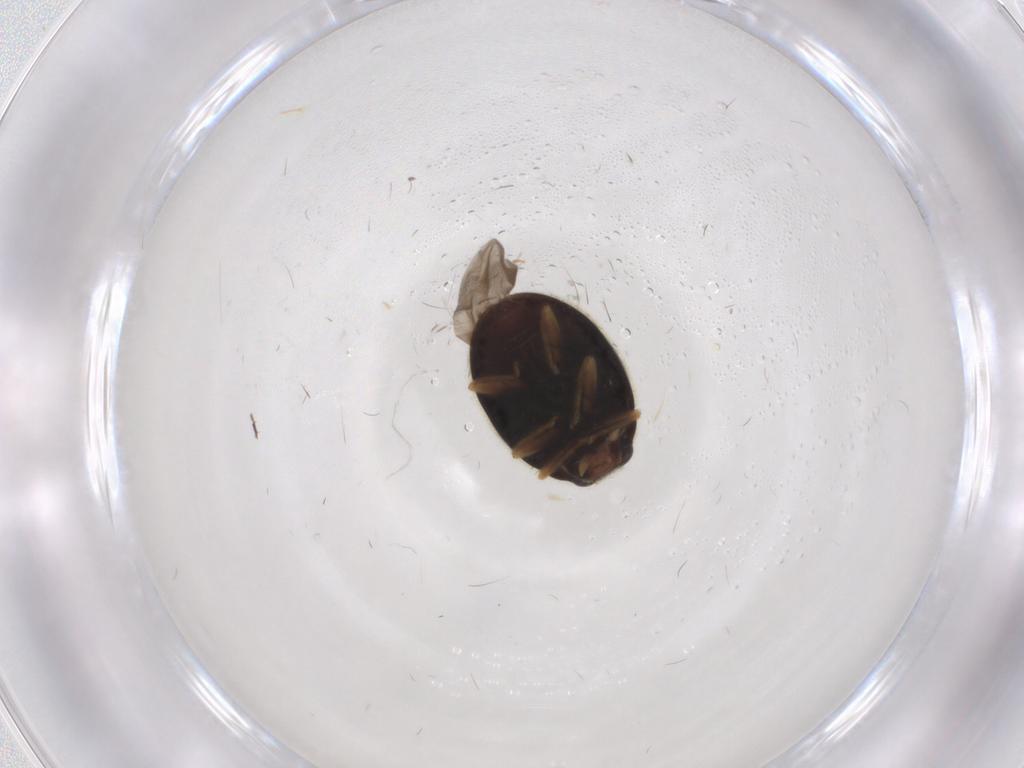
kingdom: Animalia
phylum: Arthropoda
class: Insecta
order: Coleoptera
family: Coccinellidae
